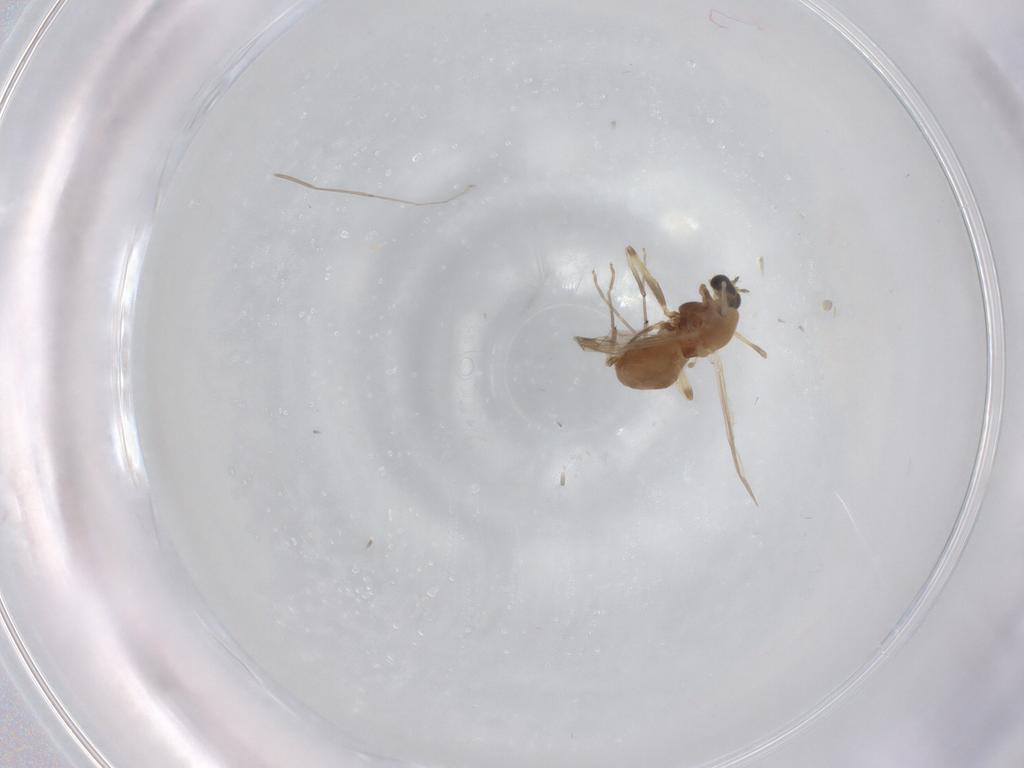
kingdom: Animalia
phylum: Arthropoda
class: Insecta
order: Diptera
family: Chironomidae
